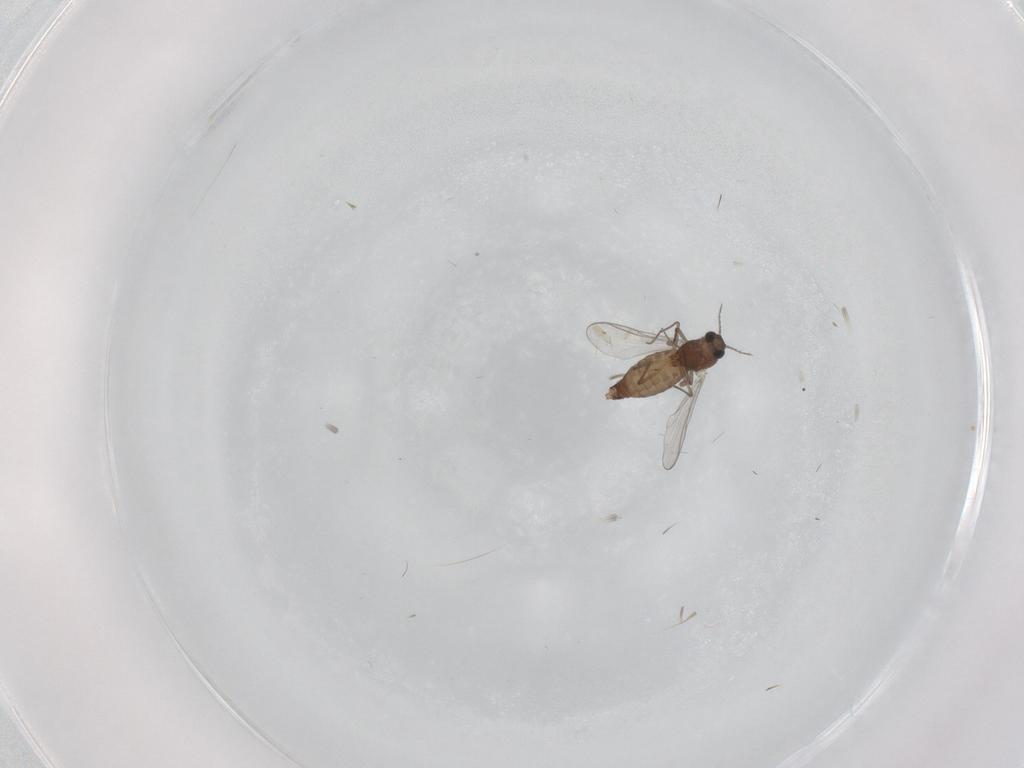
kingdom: Animalia
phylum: Arthropoda
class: Insecta
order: Diptera
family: Chironomidae
